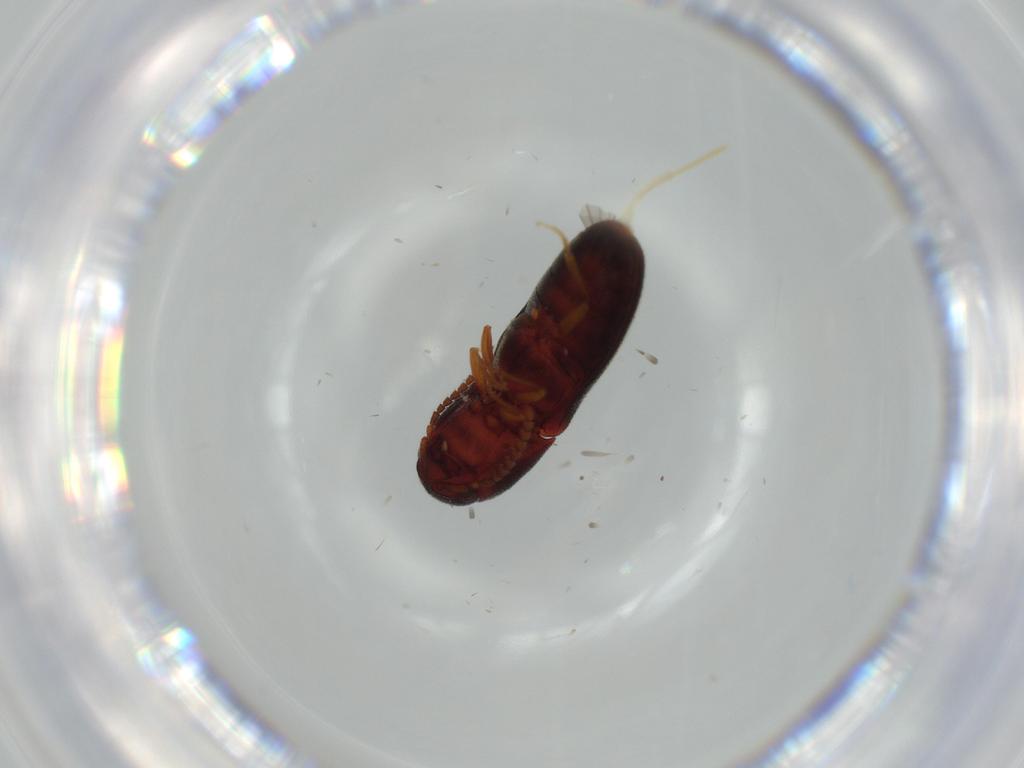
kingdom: Animalia
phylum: Arthropoda
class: Insecta
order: Coleoptera
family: Eucnemidae
